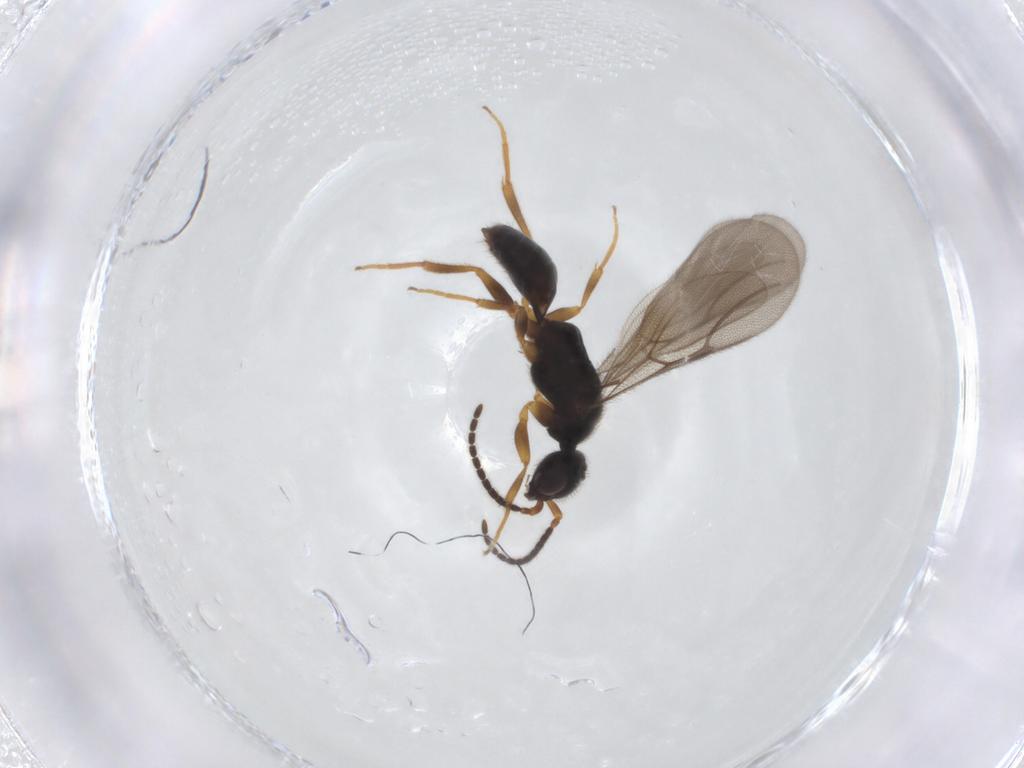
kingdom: Animalia
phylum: Arthropoda
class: Insecta
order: Hymenoptera
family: Bethylidae
